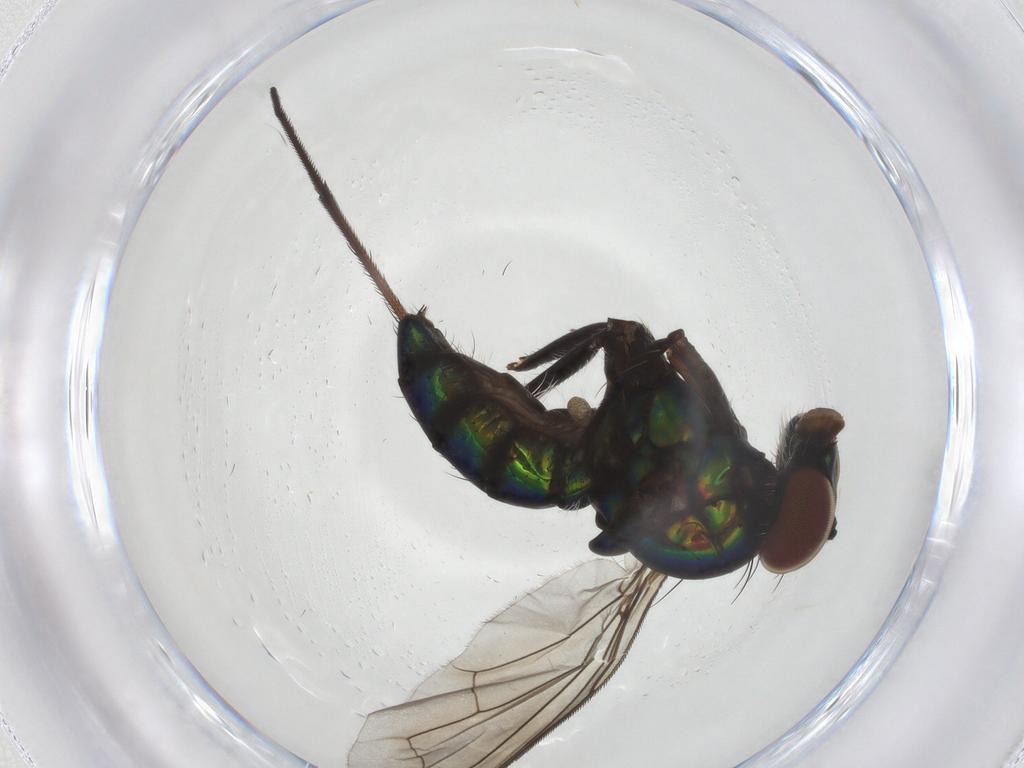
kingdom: Animalia
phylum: Arthropoda
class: Insecta
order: Diptera
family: Dolichopodidae
